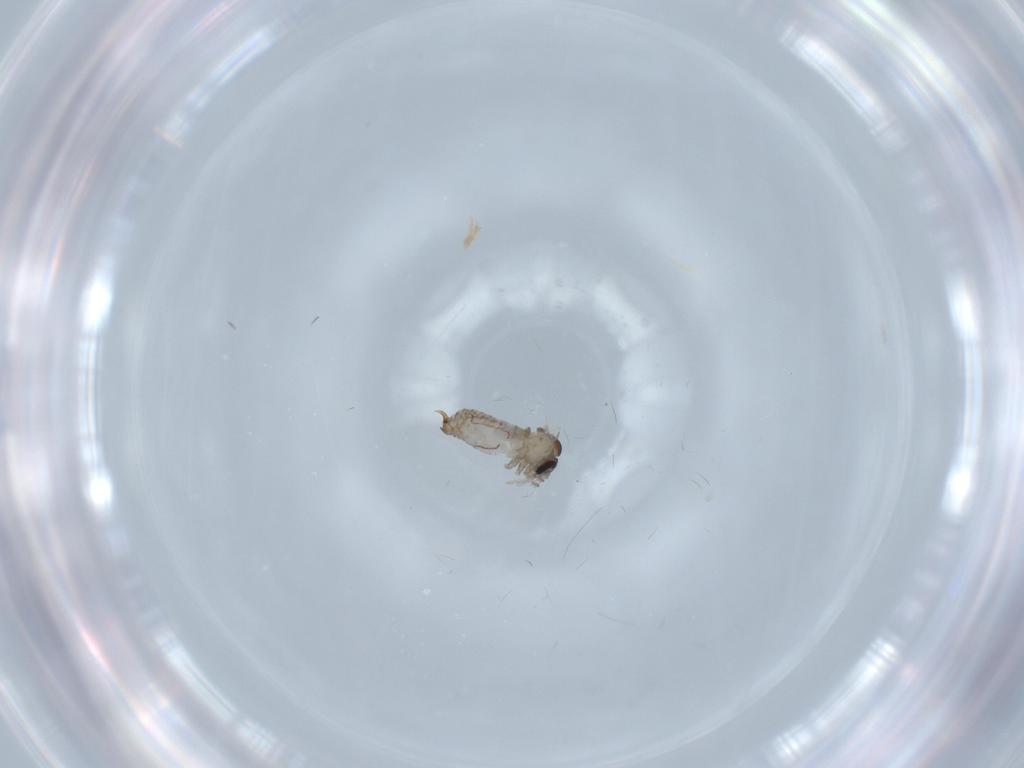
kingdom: Animalia
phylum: Arthropoda
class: Insecta
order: Diptera
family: Psychodidae
